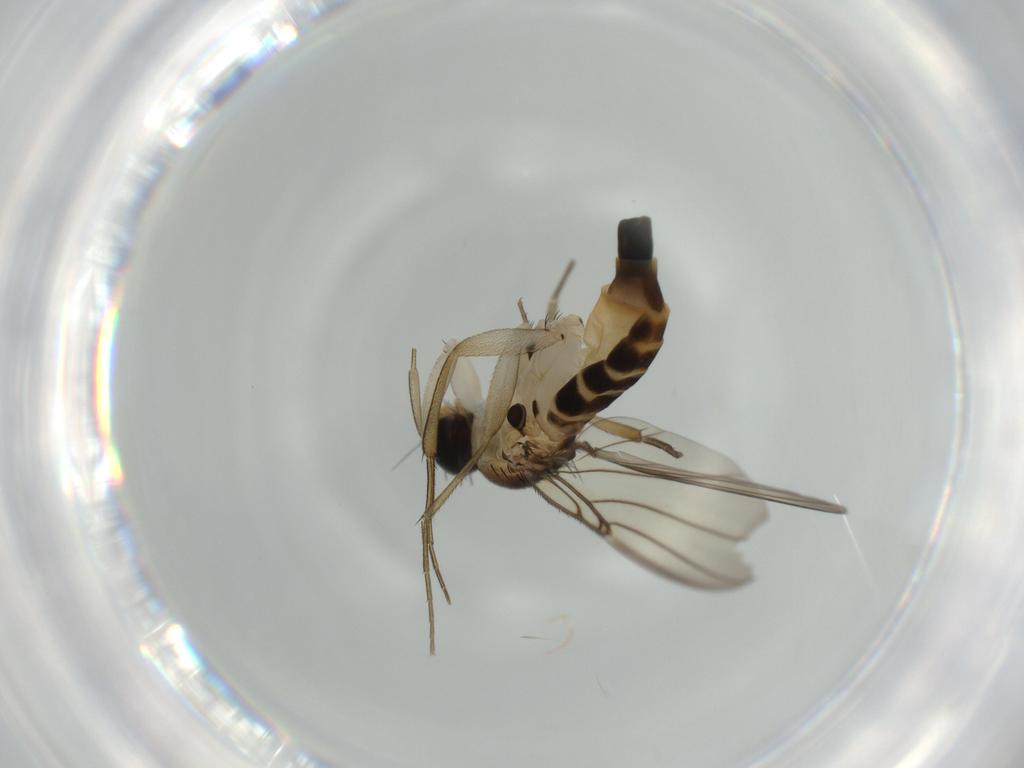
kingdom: Animalia
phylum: Arthropoda
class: Insecta
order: Diptera
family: Phoridae
